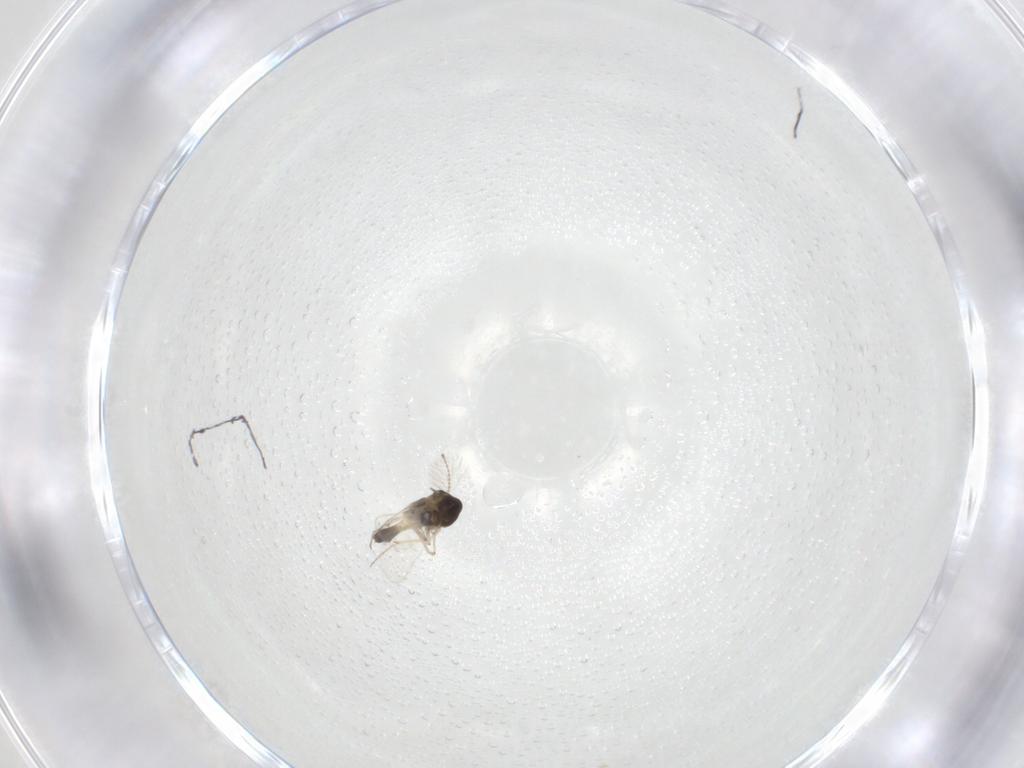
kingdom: Animalia
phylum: Arthropoda
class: Insecta
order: Diptera
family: Chironomidae
